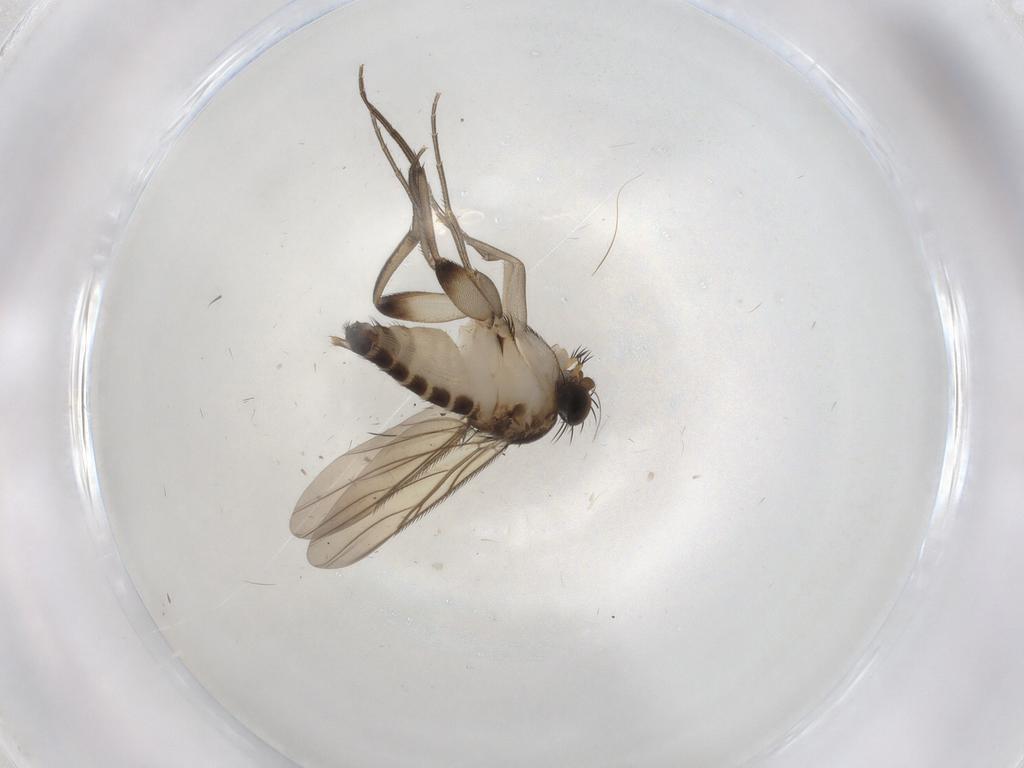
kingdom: Animalia
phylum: Arthropoda
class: Insecta
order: Diptera
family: Phoridae
